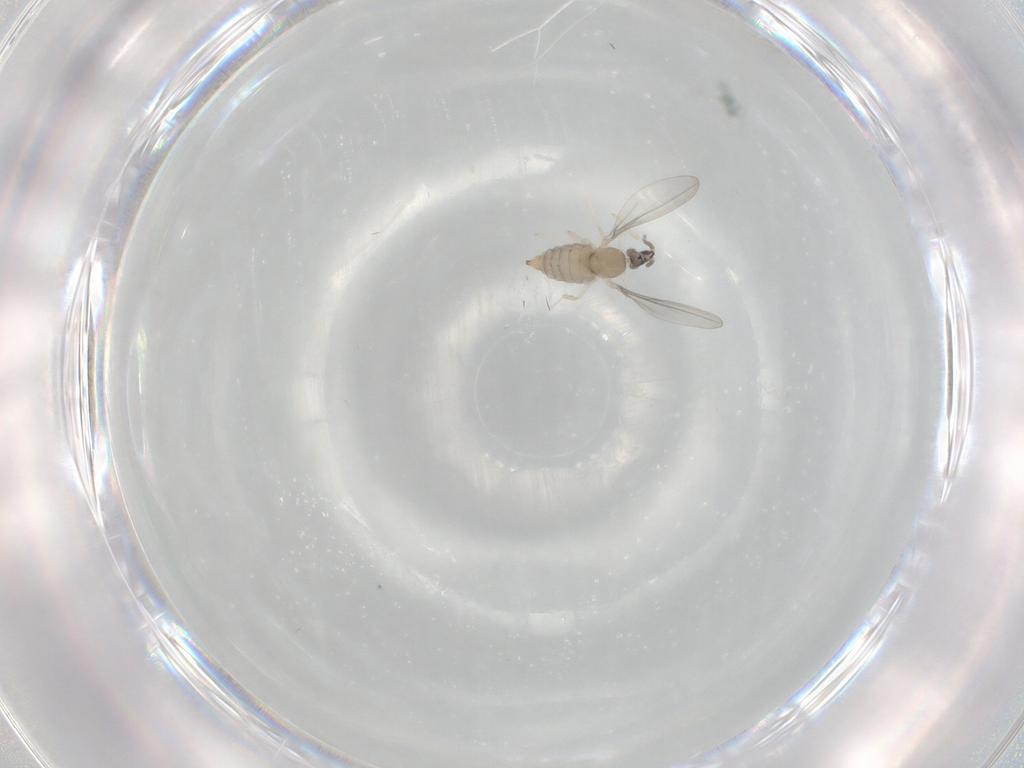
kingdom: Animalia
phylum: Arthropoda
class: Insecta
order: Diptera
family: Cecidomyiidae
